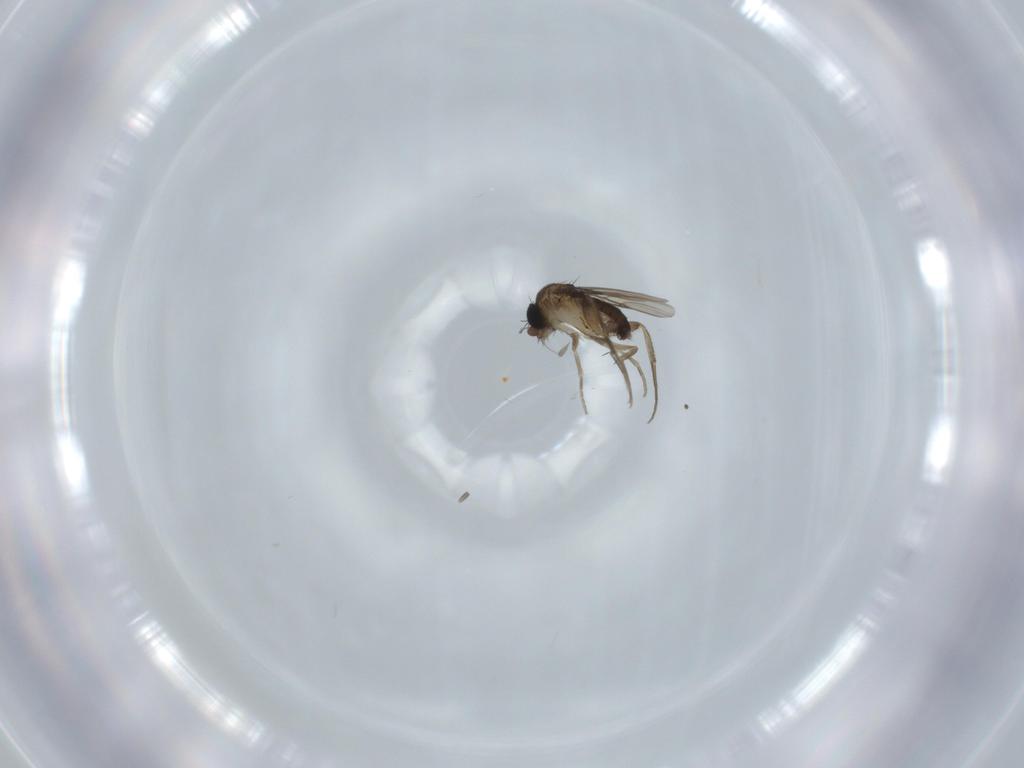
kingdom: Animalia
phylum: Arthropoda
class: Insecta
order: Diptera
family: Phoridae
